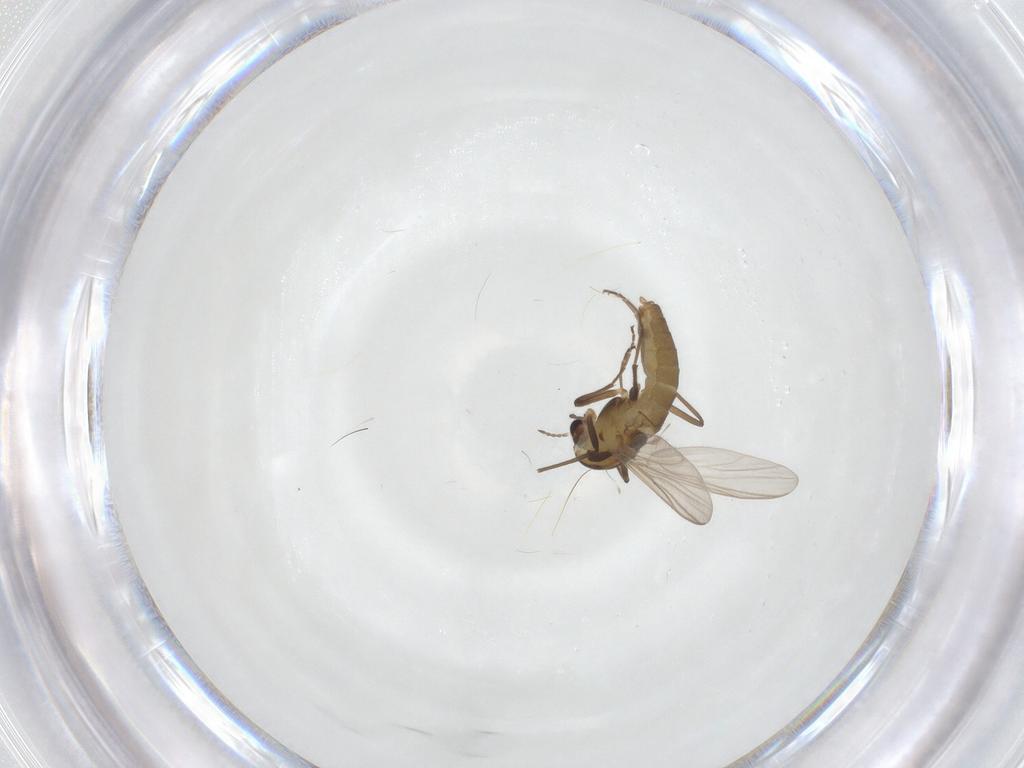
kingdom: Animalia
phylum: Arthropoda
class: Insecta
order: Diptera
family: Chironomidae
